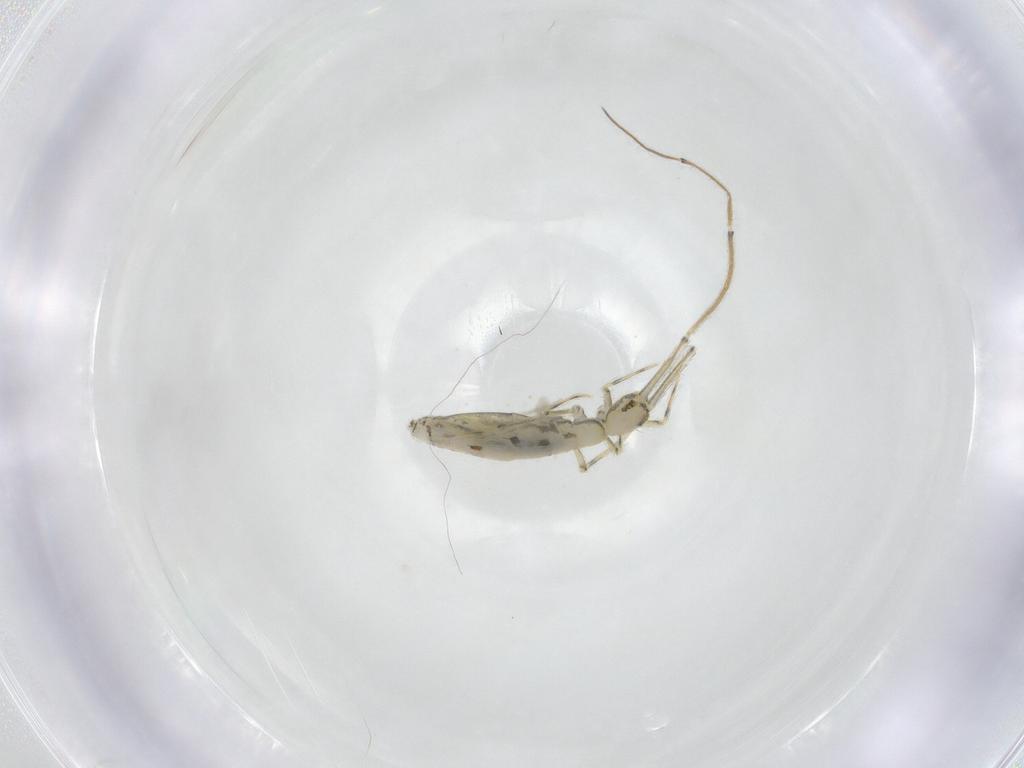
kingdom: Animalia
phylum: Arthropoda
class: Collembola
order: Entomobryomorpha
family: Paronellidae
